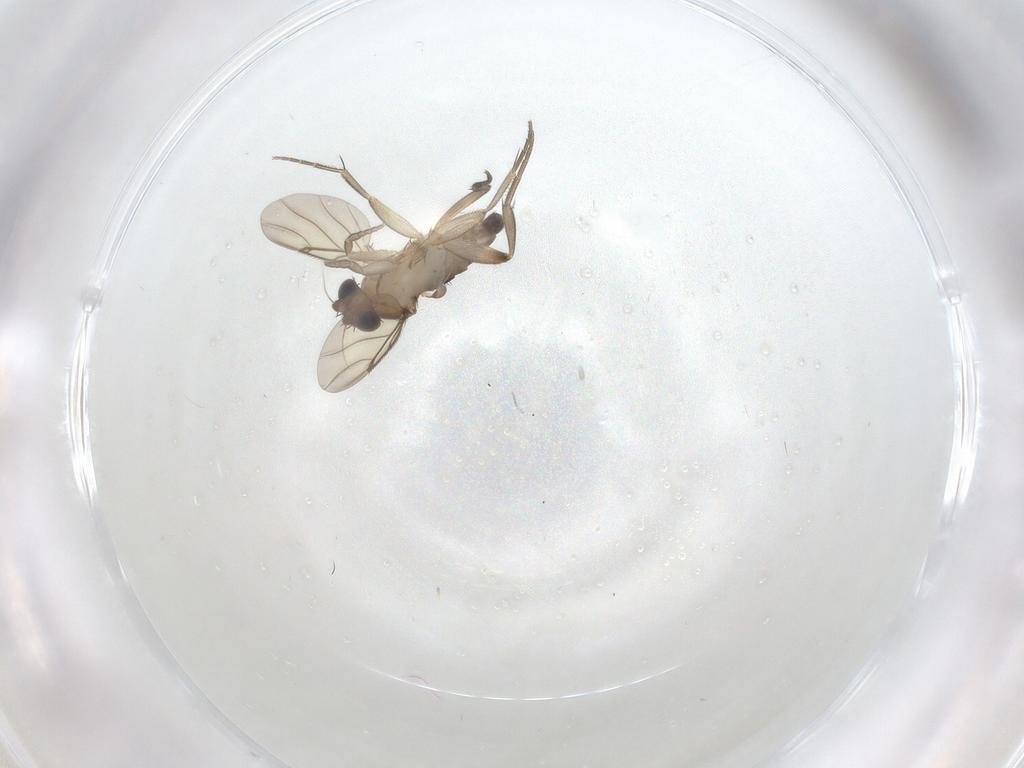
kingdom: Animalia
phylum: Arthropoda
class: Insecta
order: Diptera
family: Phoridae
